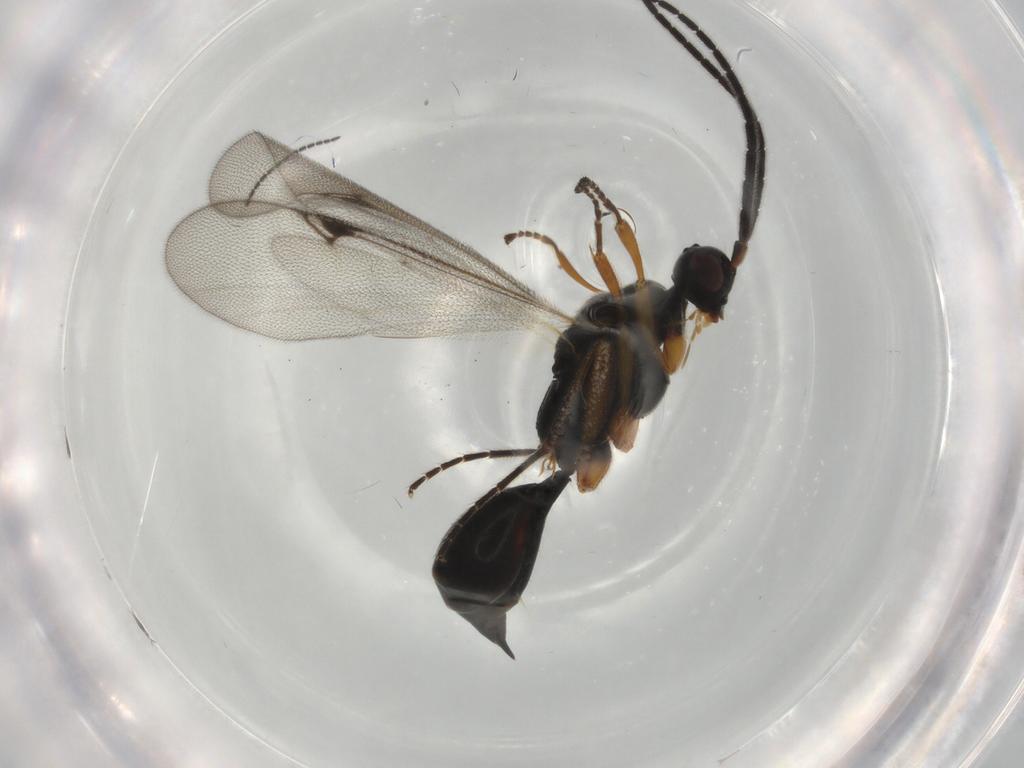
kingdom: Animalia
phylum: Arthropoda
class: Insecta
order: Hymenoptera
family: Proctotrupidae
